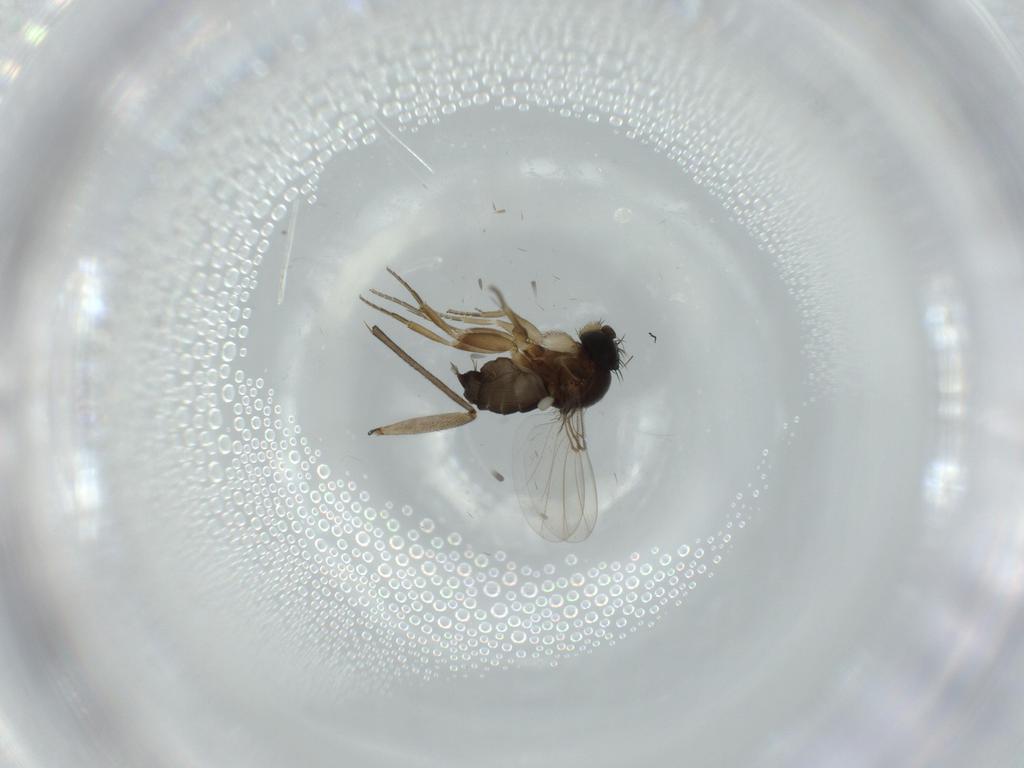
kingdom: Animalia
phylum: Arthropoda
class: Insecta
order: Diptera
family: Sciaridae
